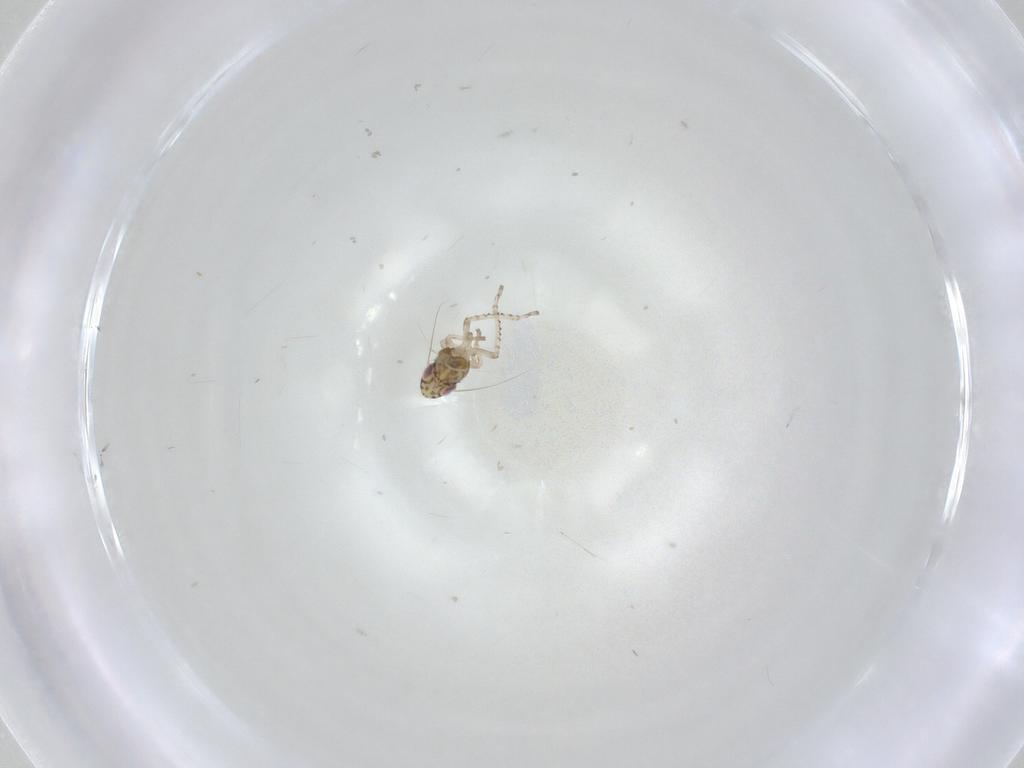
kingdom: Animalia
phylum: Arthropoda
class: Insecta
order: Hemiptera
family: Cicadellidae
